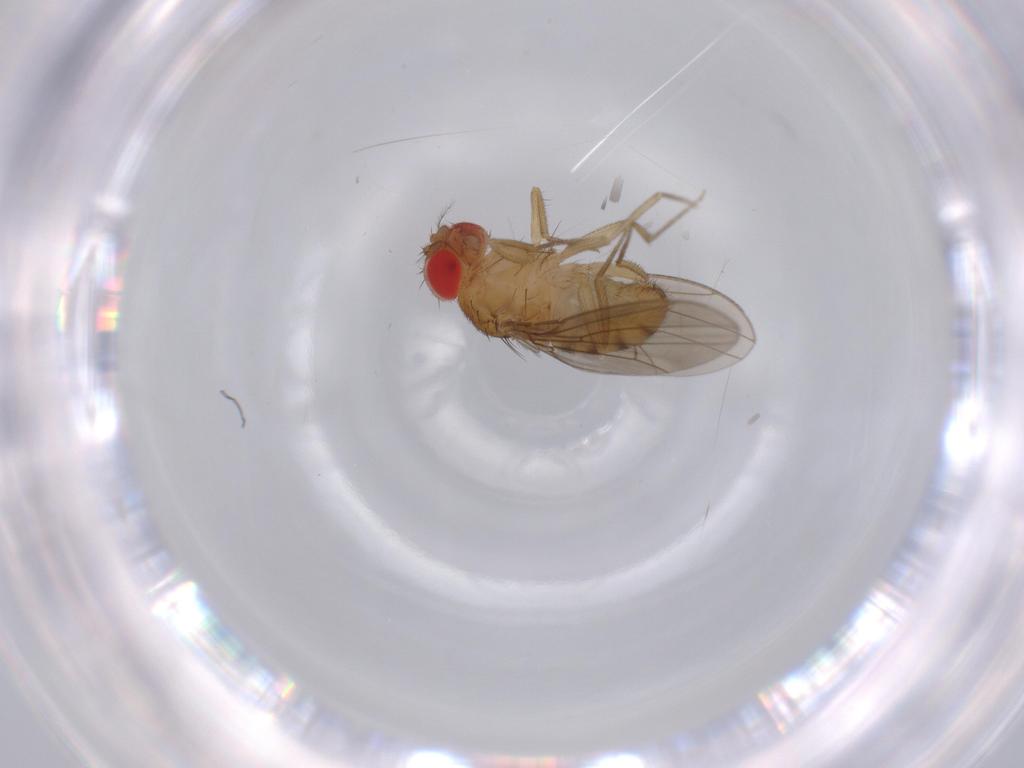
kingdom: Animalia
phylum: Arthropoda
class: Insecta
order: Diptera
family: Drosophilidae
